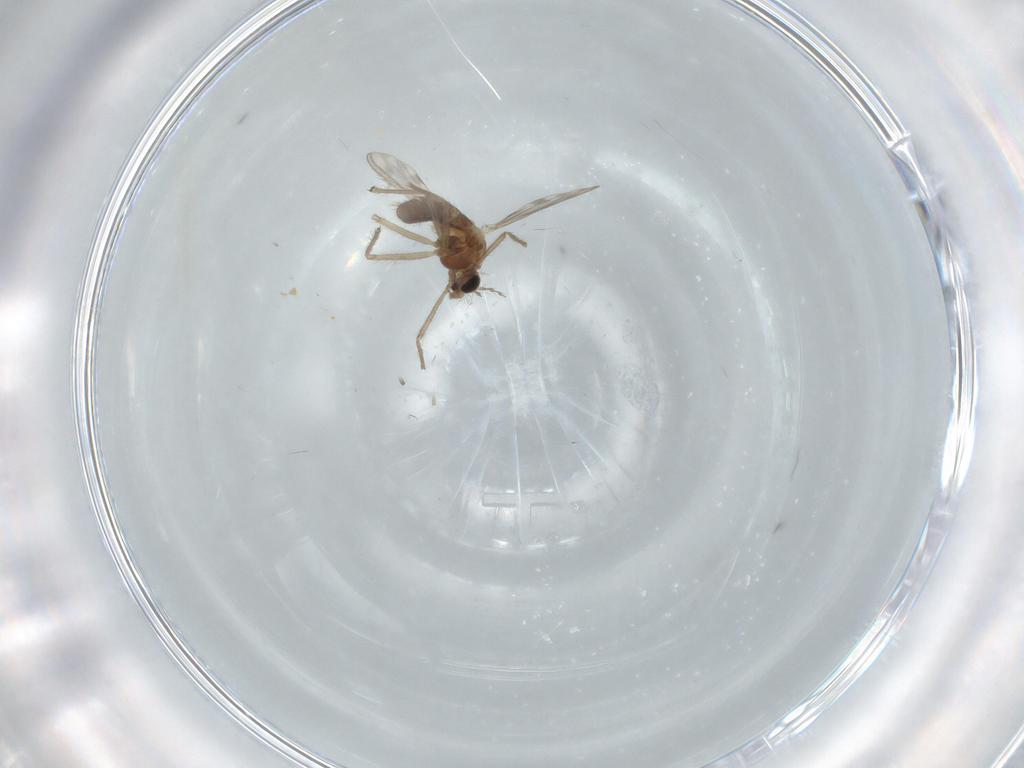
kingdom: Animalia
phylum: Arthropoda
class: Insecta
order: Diptera
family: Chironomidae
